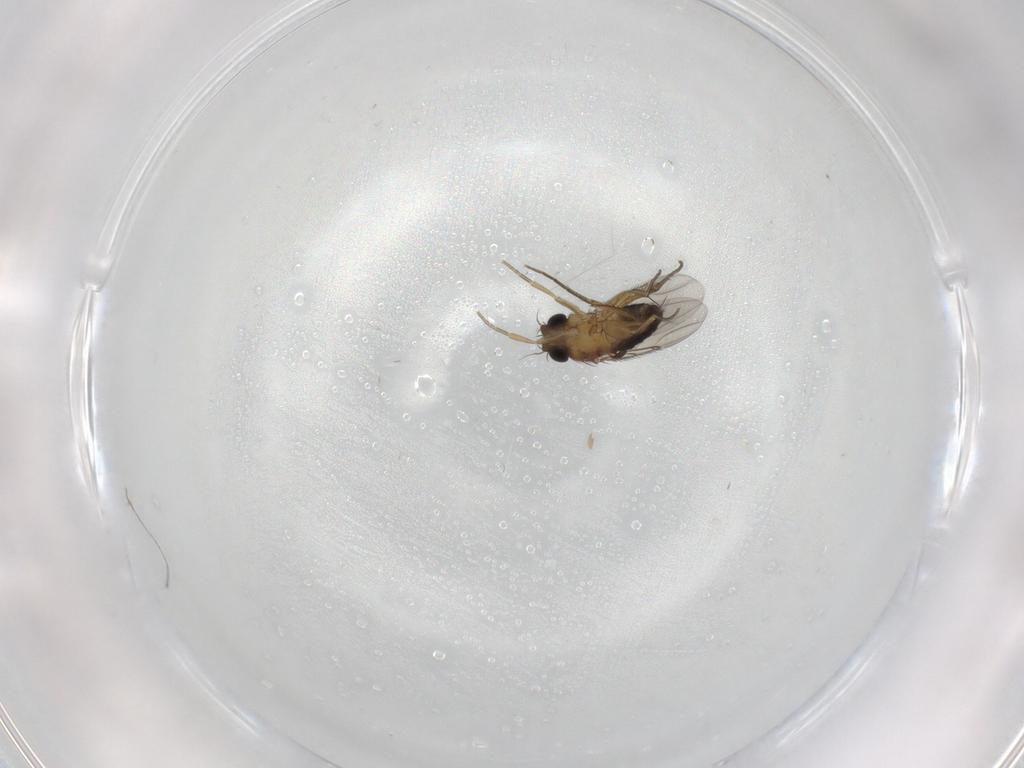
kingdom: Animalia
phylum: Arthropoda
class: Insecta
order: Diptera
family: Phoridae
